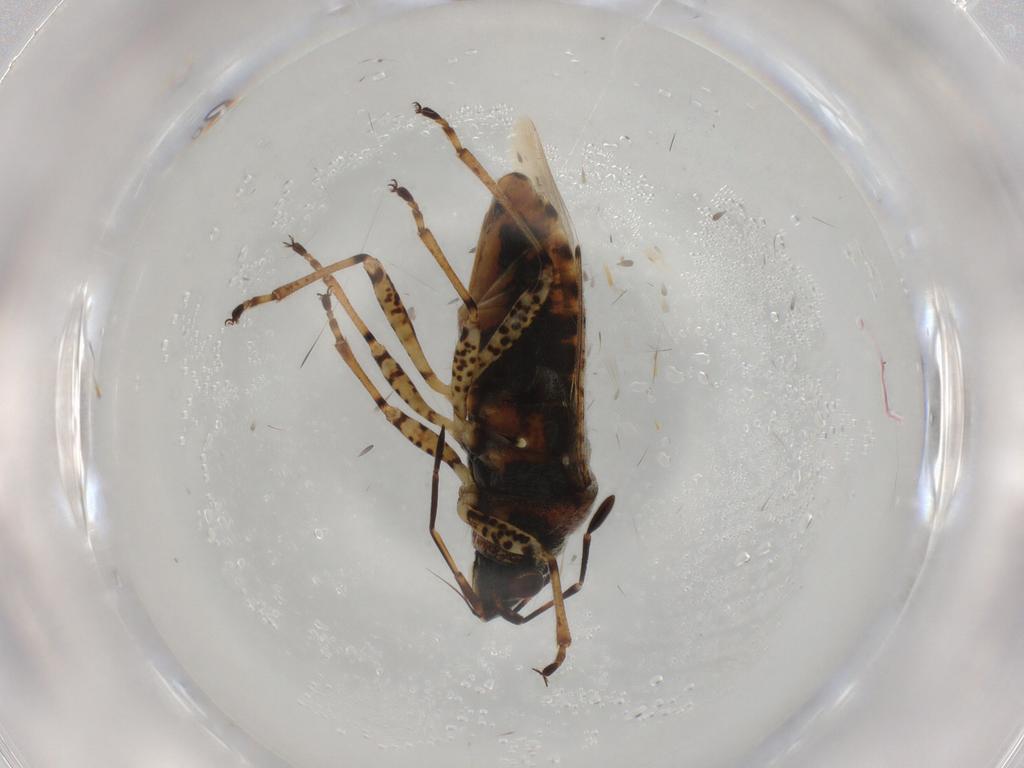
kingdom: Animalia
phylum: Arthropoda
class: Insecta
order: Hemiptera
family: Lygaeidae
